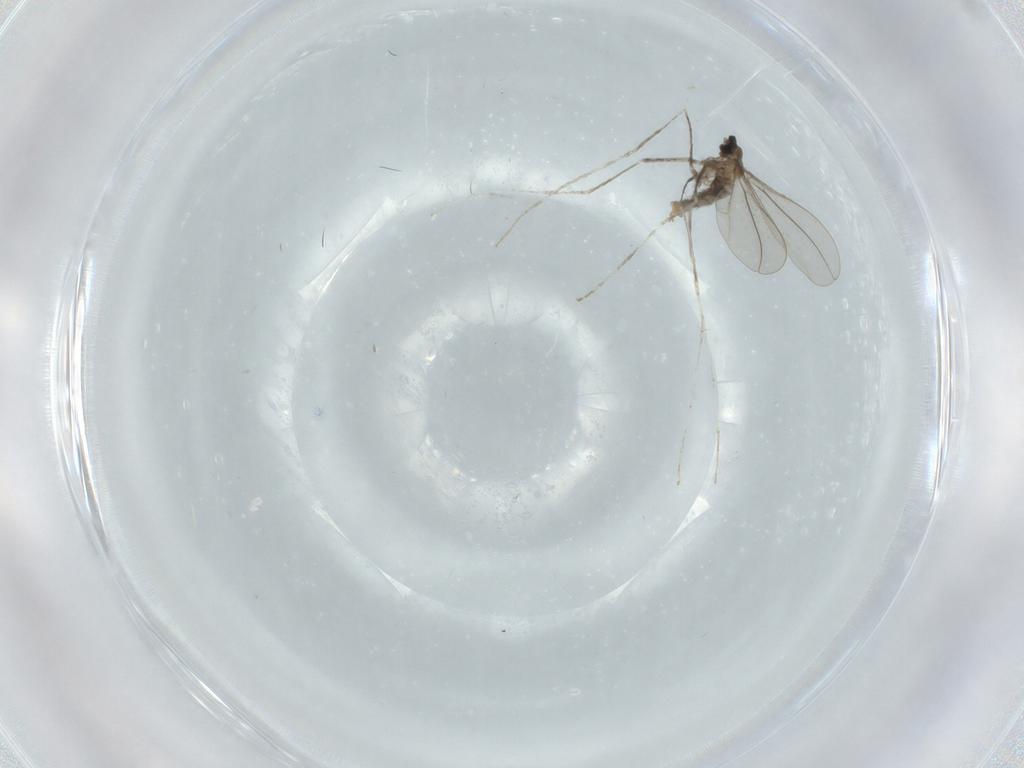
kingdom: Animalia
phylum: Arthropoda
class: Insecta
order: Diptera
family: Cecidomyiidae
